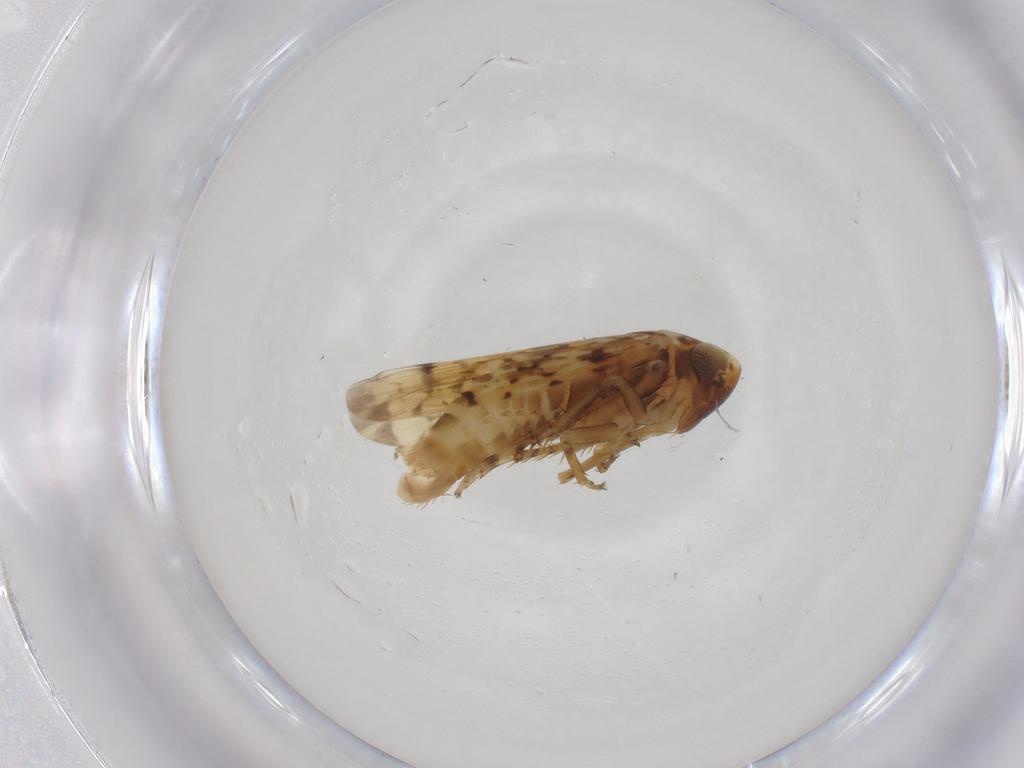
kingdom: Animalia
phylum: Arthropoda
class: Insecta
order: Hemiptera
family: Cicadellidae
